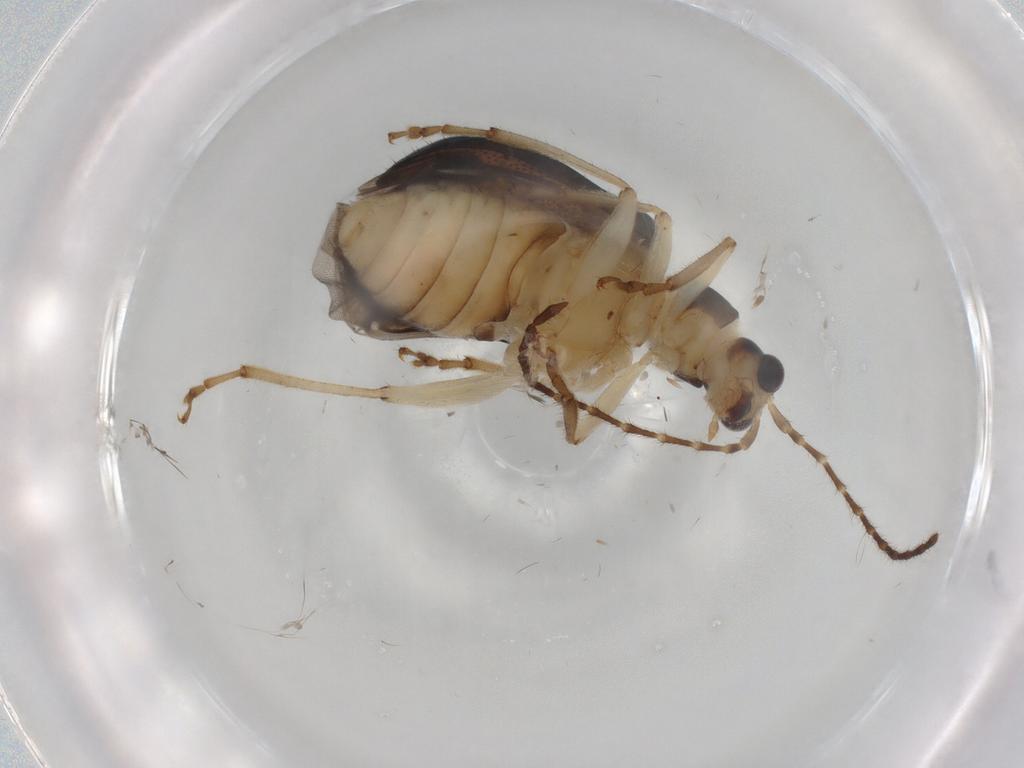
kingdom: Animalia
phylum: Arthropoda
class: Insecta
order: Coleoptera
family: Chrysomelidae
